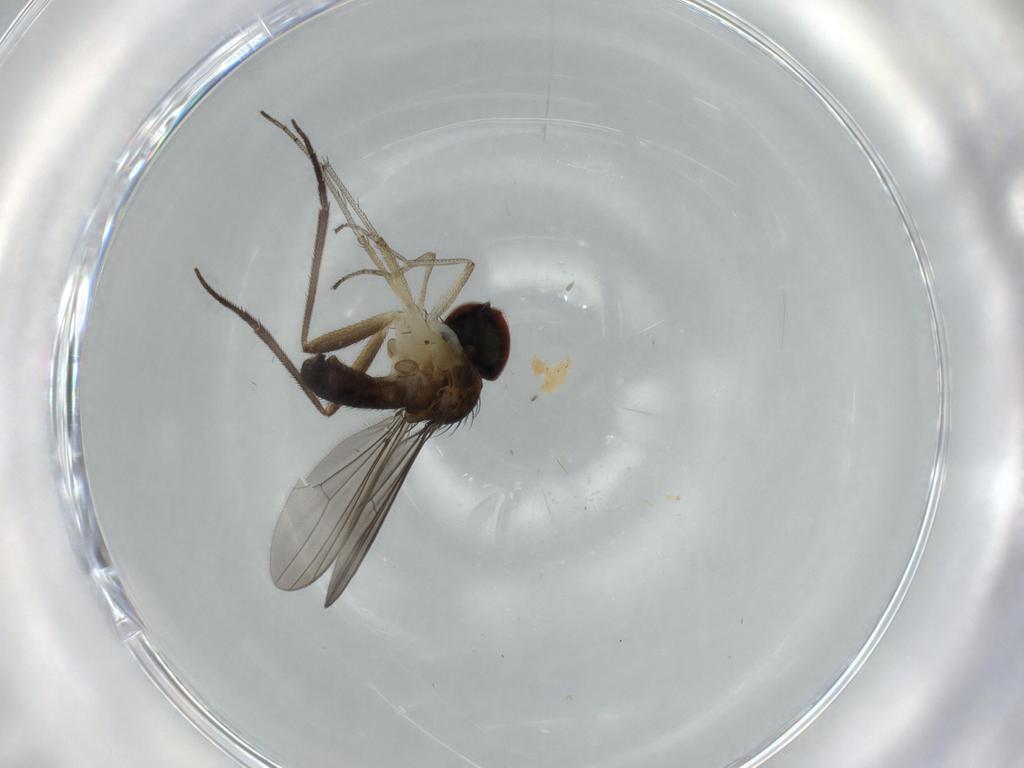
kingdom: Animalia
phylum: Arthropoda
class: Insecta
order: Diptera
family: Dolichopodidae
